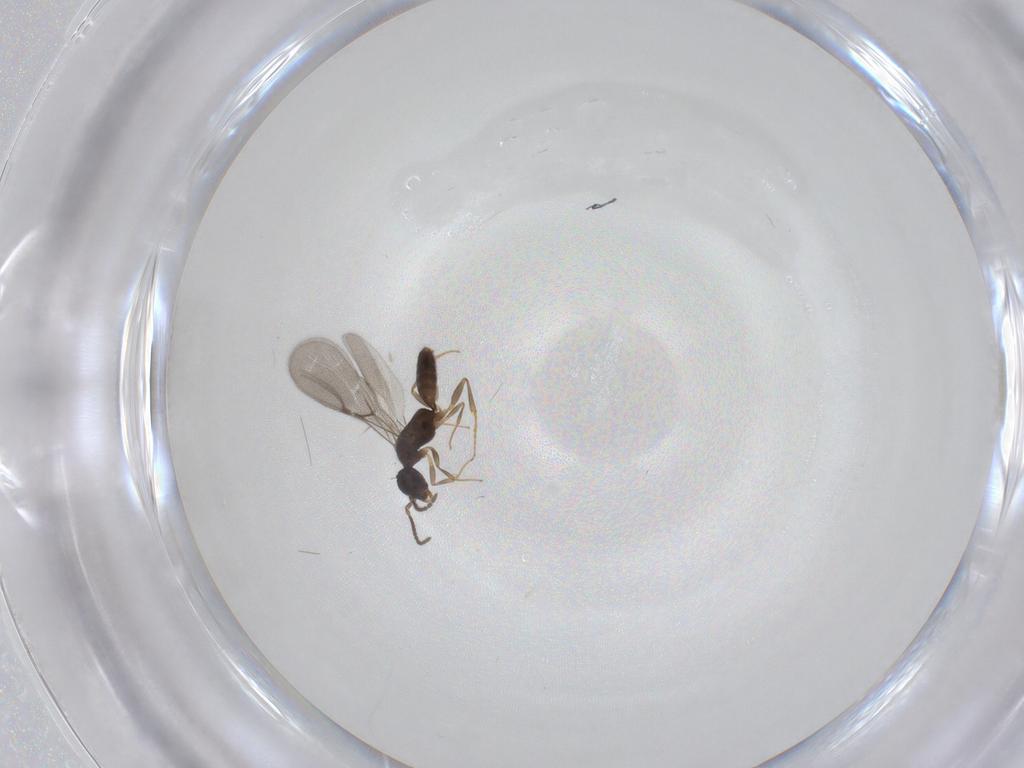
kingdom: Animalia
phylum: Arthropoda
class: Insecta
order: Hymenoptera
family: Bethylidae
